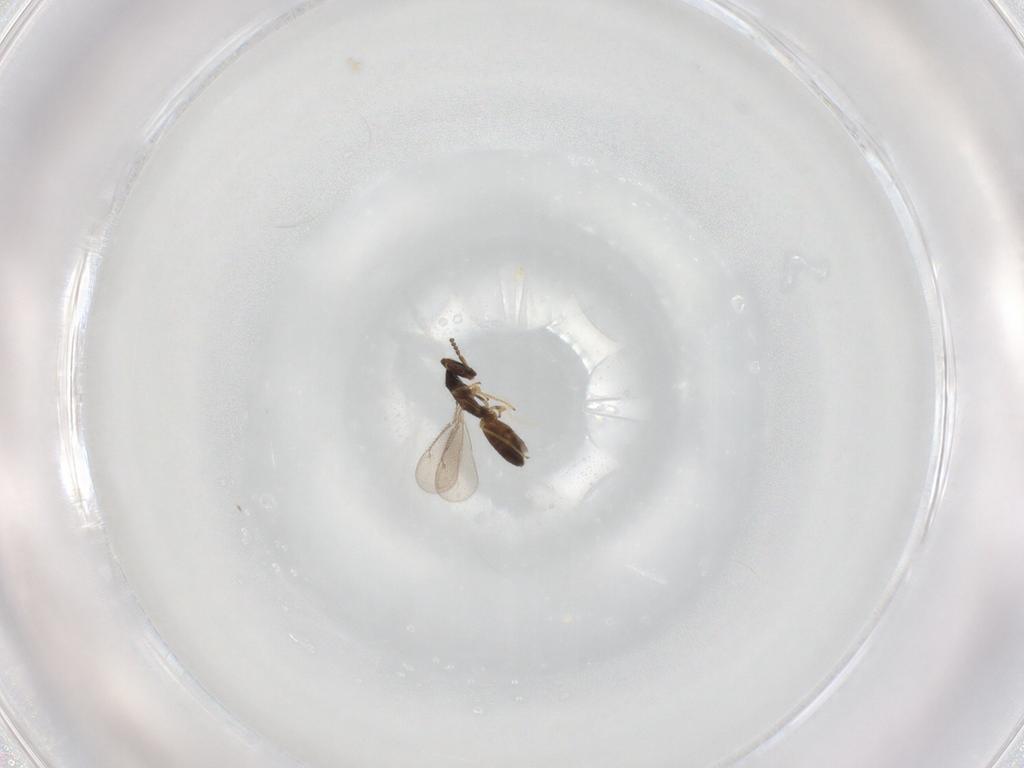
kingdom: Animalia
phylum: Arthropoda
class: Insecta
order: Hymenoptera
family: Eulophidae
